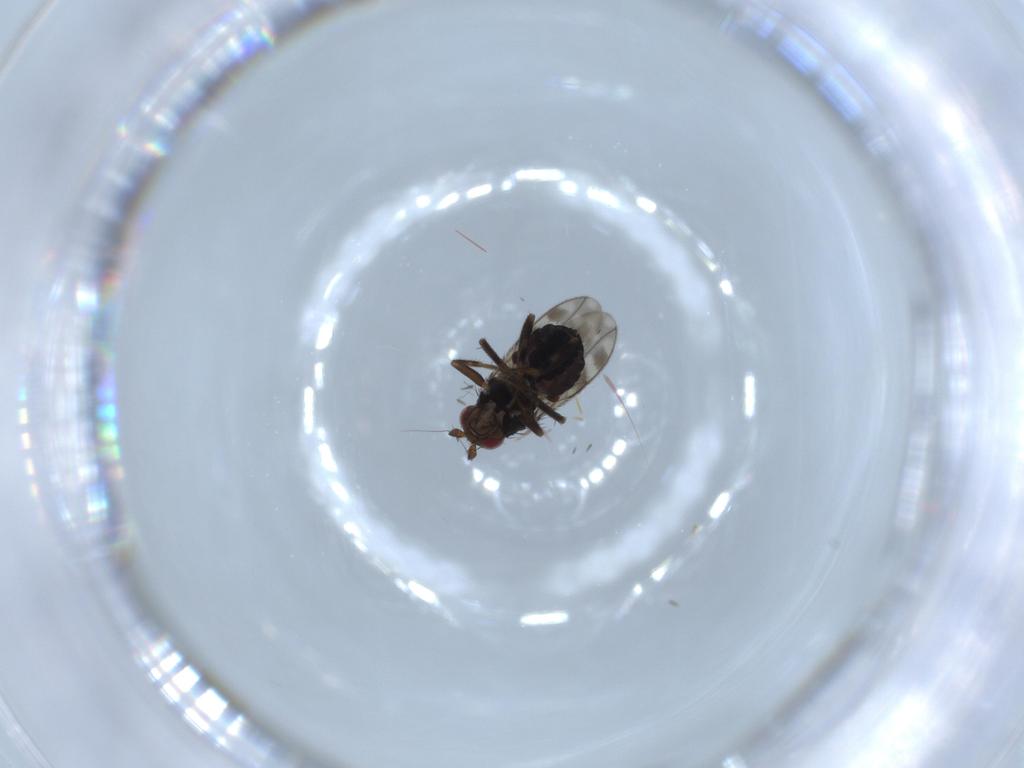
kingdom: Animalia
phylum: Arthropoda
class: Insecta
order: Diptera
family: Sphaeroceridae
